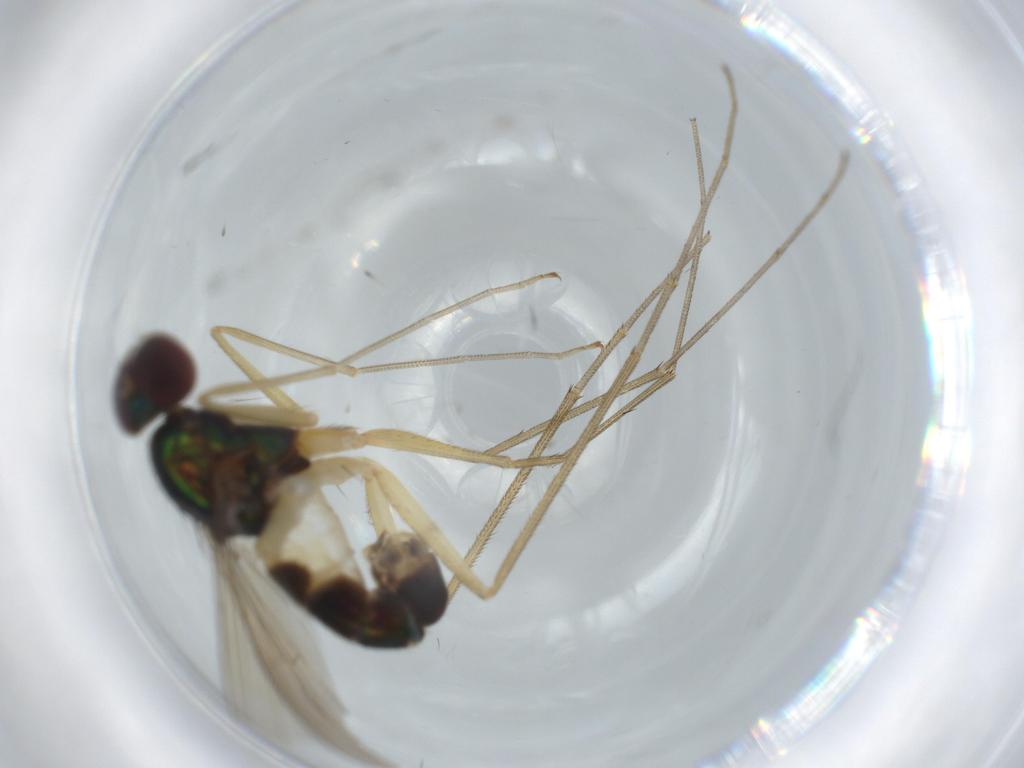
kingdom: Animalia
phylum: Arthropoda
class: Insecta
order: Diptera
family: Dolichopodidae
